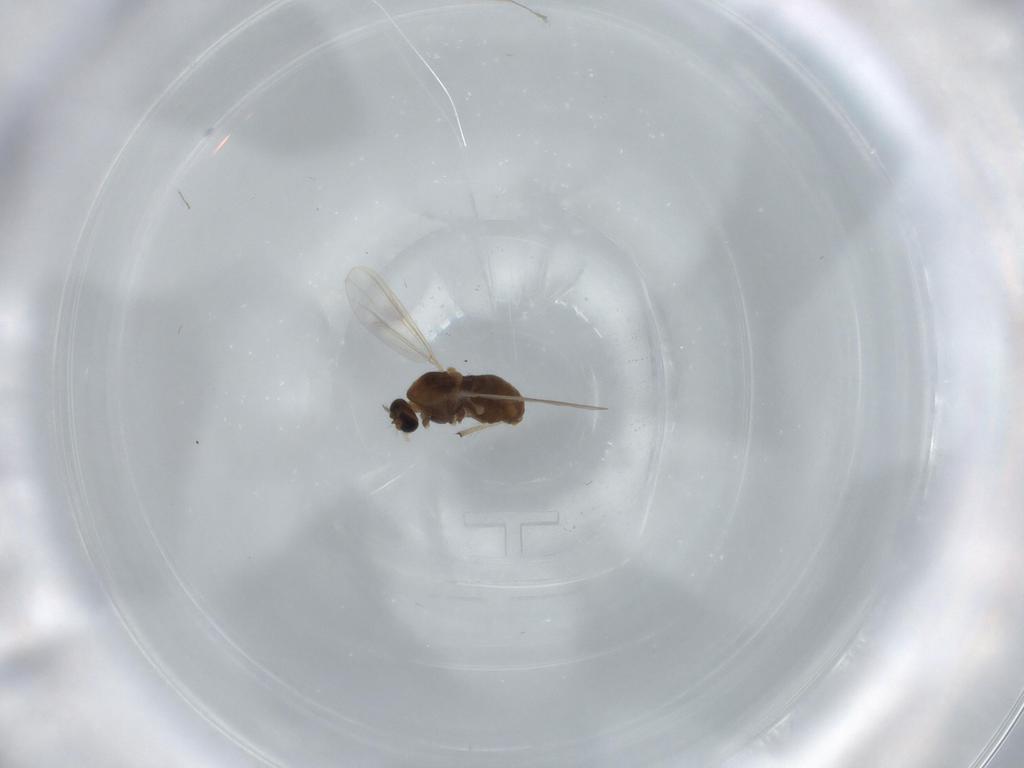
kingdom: Animalia
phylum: Arthropoda
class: Insecta
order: Diptera
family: Chironomidae
